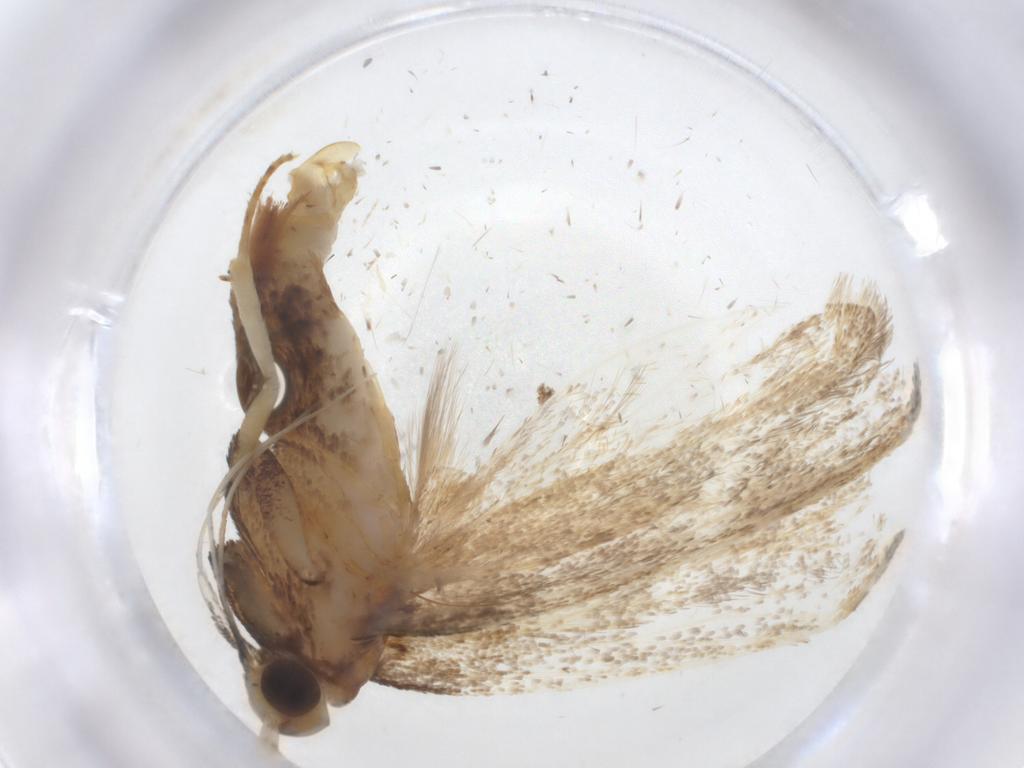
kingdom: Animalia
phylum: Arthropoda
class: Insecta
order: Lepidoptera
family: Lecithoceridae
